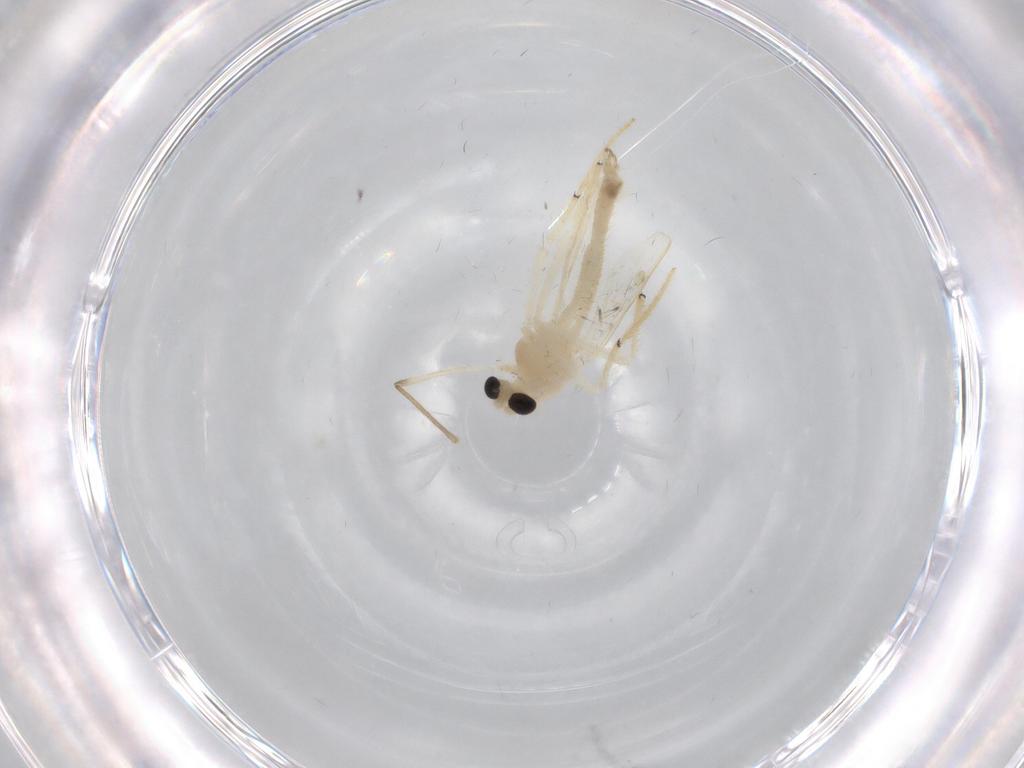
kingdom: Animalia
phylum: Arthropoda
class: Insecta
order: Diptera
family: Chironomidae
